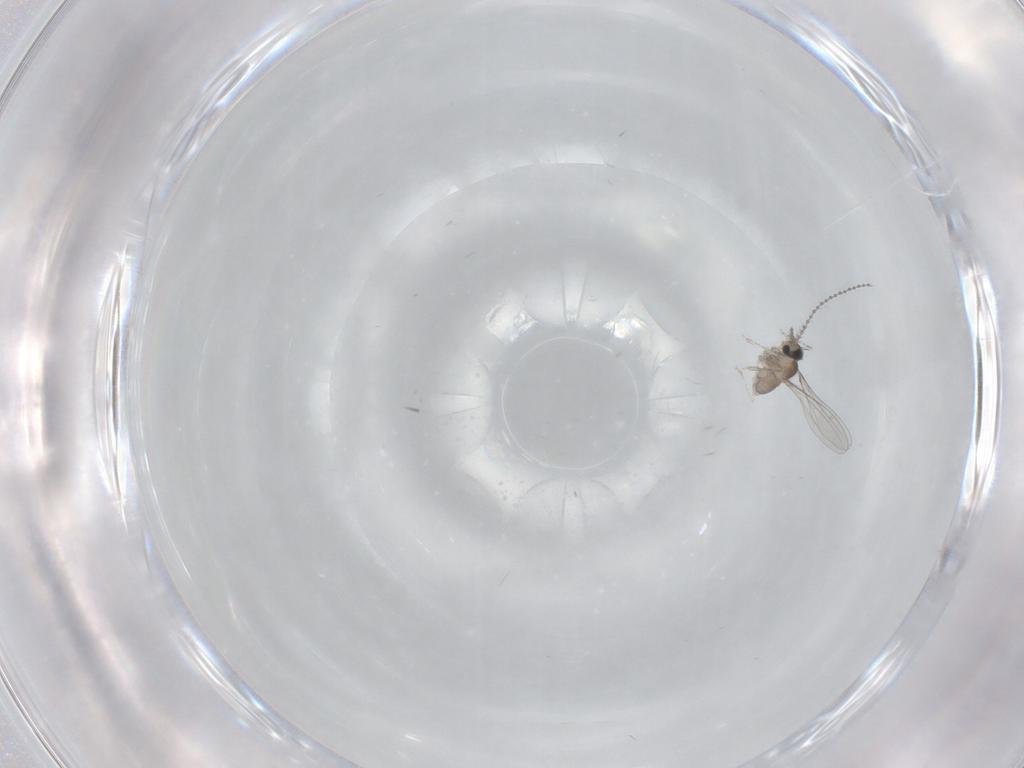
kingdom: Animalia
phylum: Arthropoda
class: Insecta
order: Diptera
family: Cecidomyiidae
